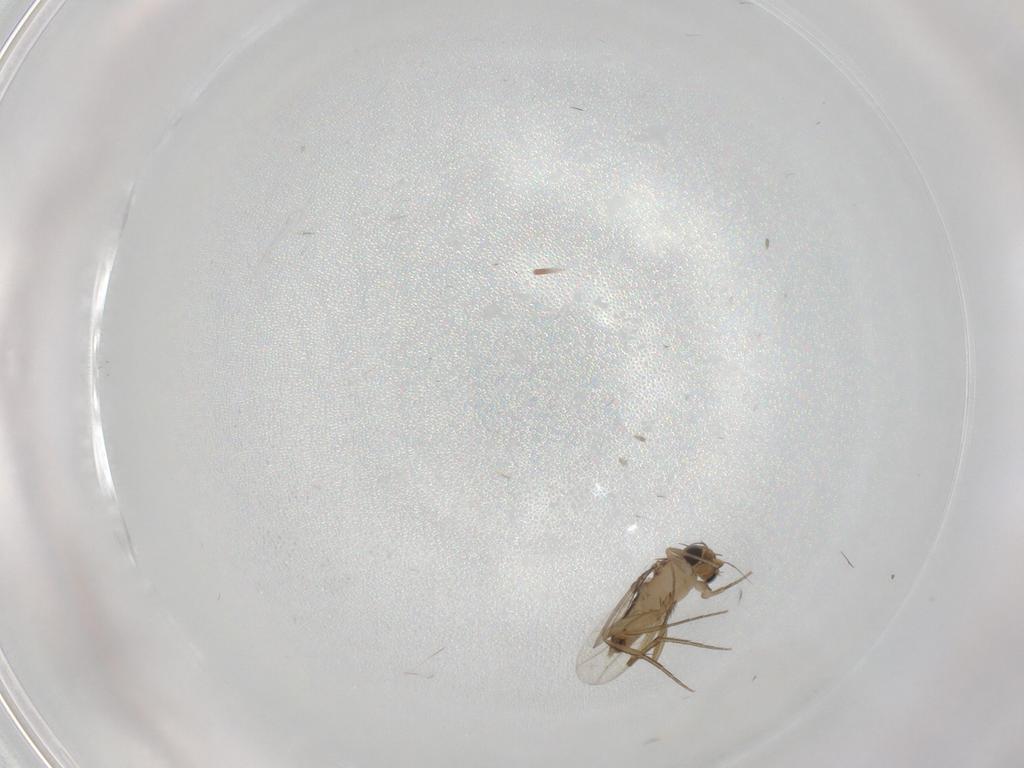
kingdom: Animalia
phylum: Arthropoda
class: Insecta
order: Diptera
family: Phoridae
